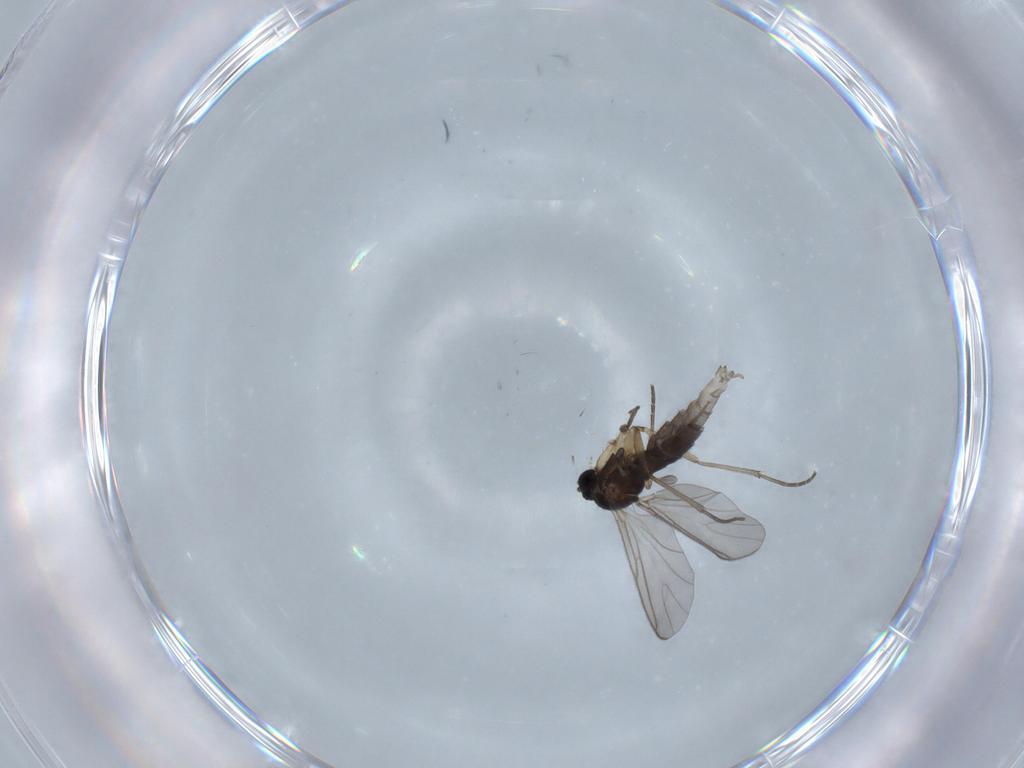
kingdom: Animalia
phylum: Arthropoda
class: Insecta
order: Diptera
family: Sciaridae
